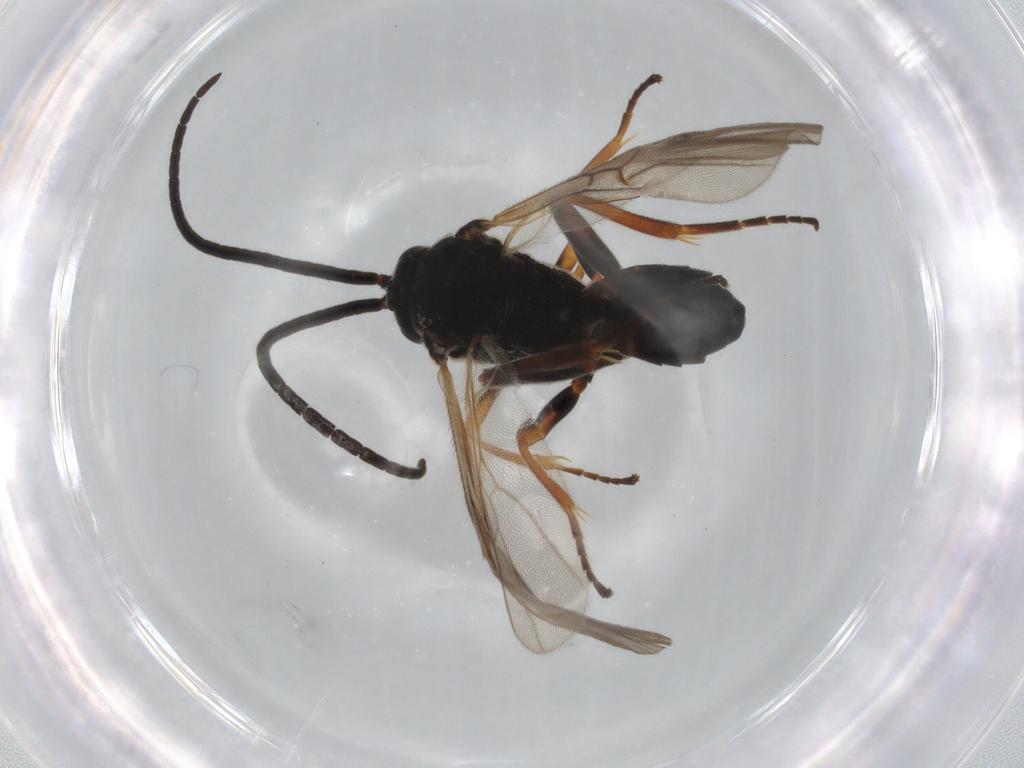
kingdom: Animalia
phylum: Arthropoda
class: Insecta
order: Hymenoptera
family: Braconidae
